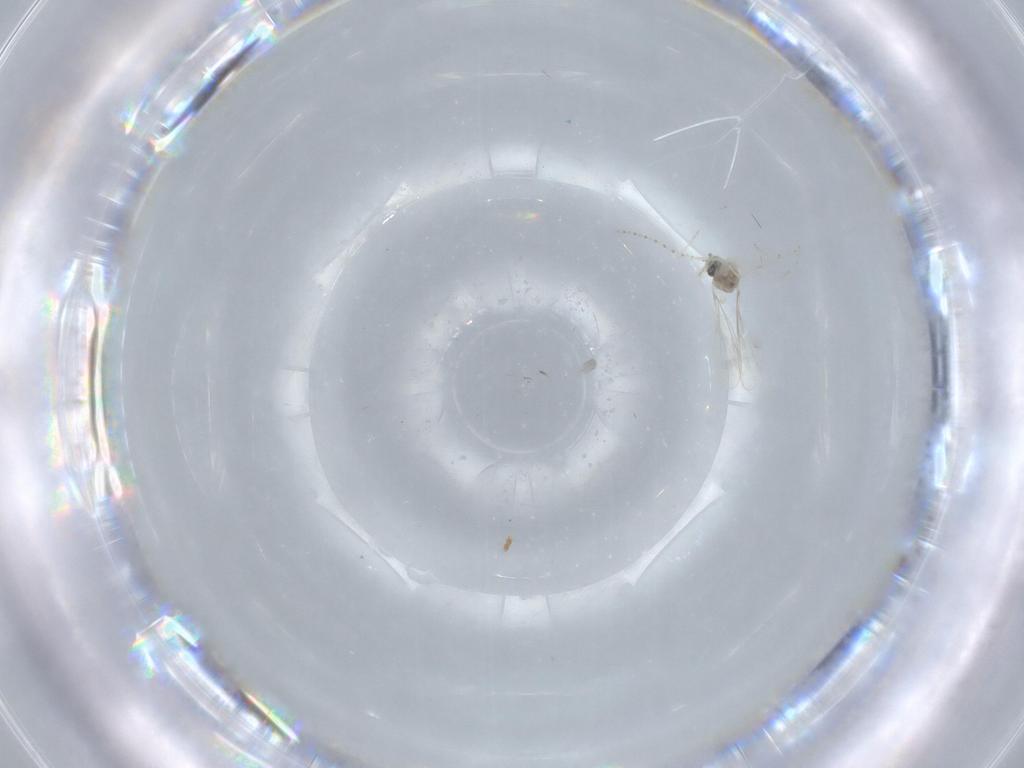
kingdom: Animalia
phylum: Arthropoda
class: Insecta
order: Diptera
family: Cecidomyiidae
